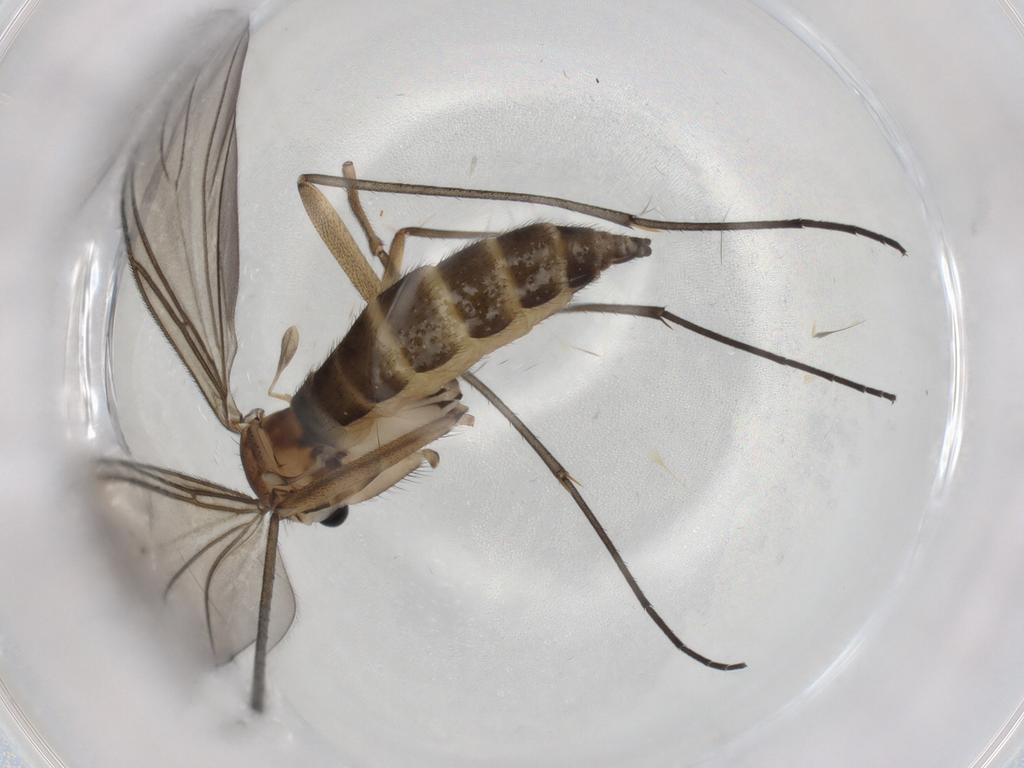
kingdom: Animalia
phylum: Arthropoda
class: Insecta
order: Diptera
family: Sciaridae
